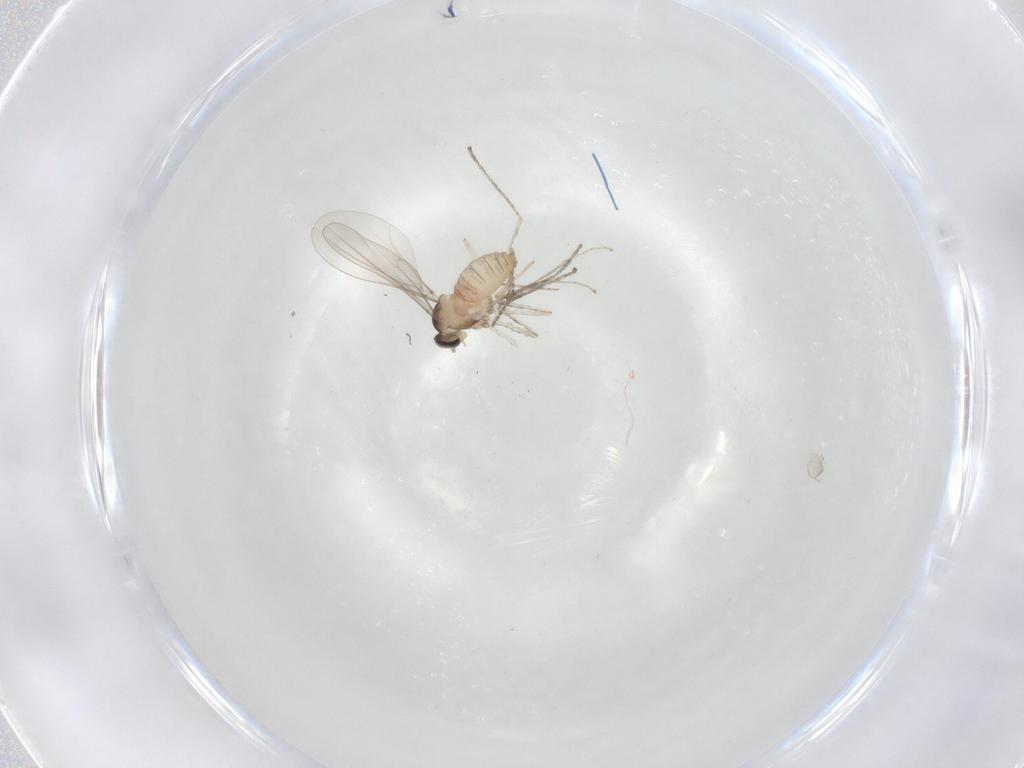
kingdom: Animalia
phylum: Arthropoda
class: Insecta
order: Diptera
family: Cecidomyiidae
